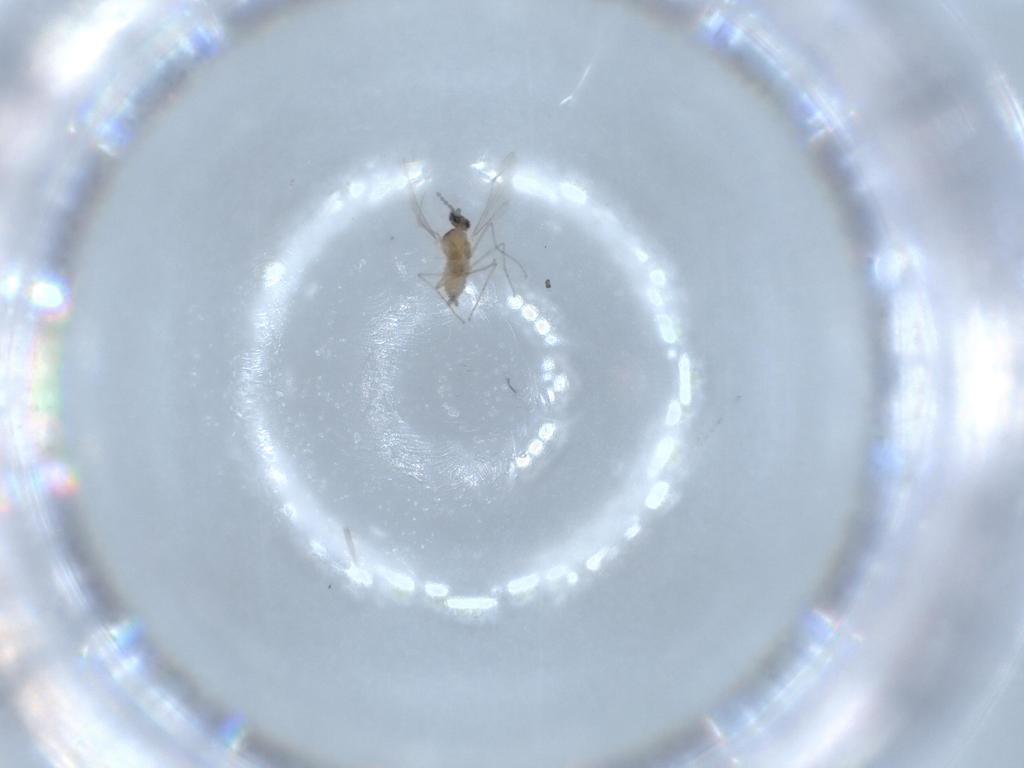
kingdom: Animalia
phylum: Arthropoda
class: Insecta
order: Diptera
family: Cecidomyiidae
